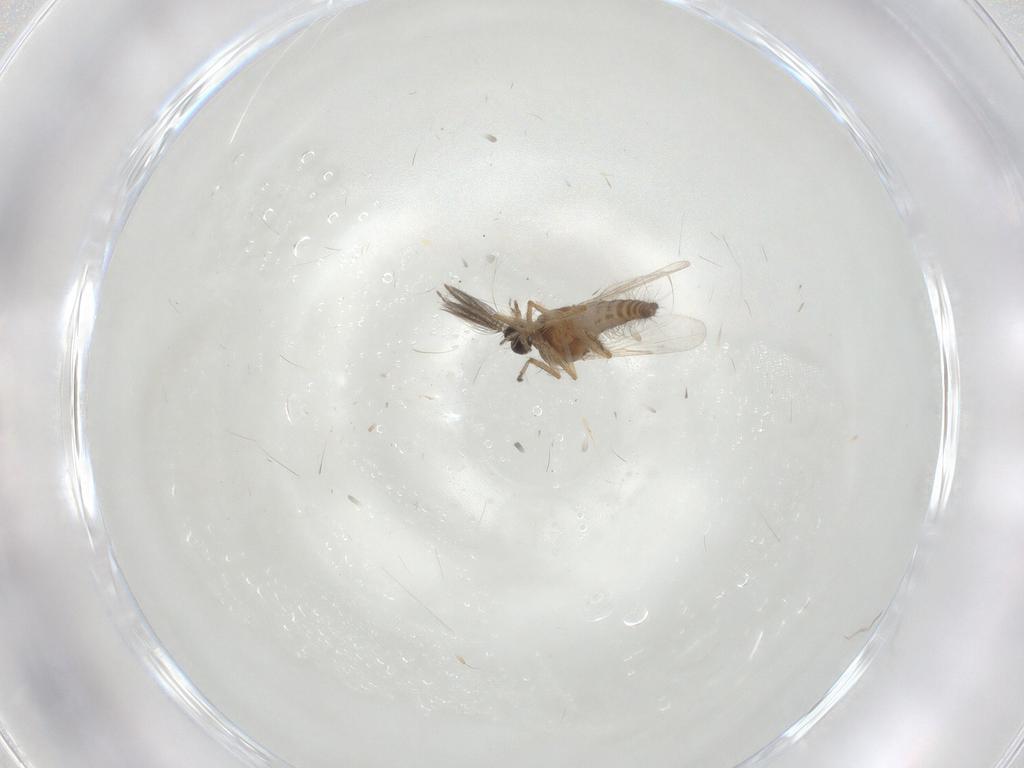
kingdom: Animalia
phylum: Arthropoda
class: Insecta
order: Diptera
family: Ceratopogonidae
